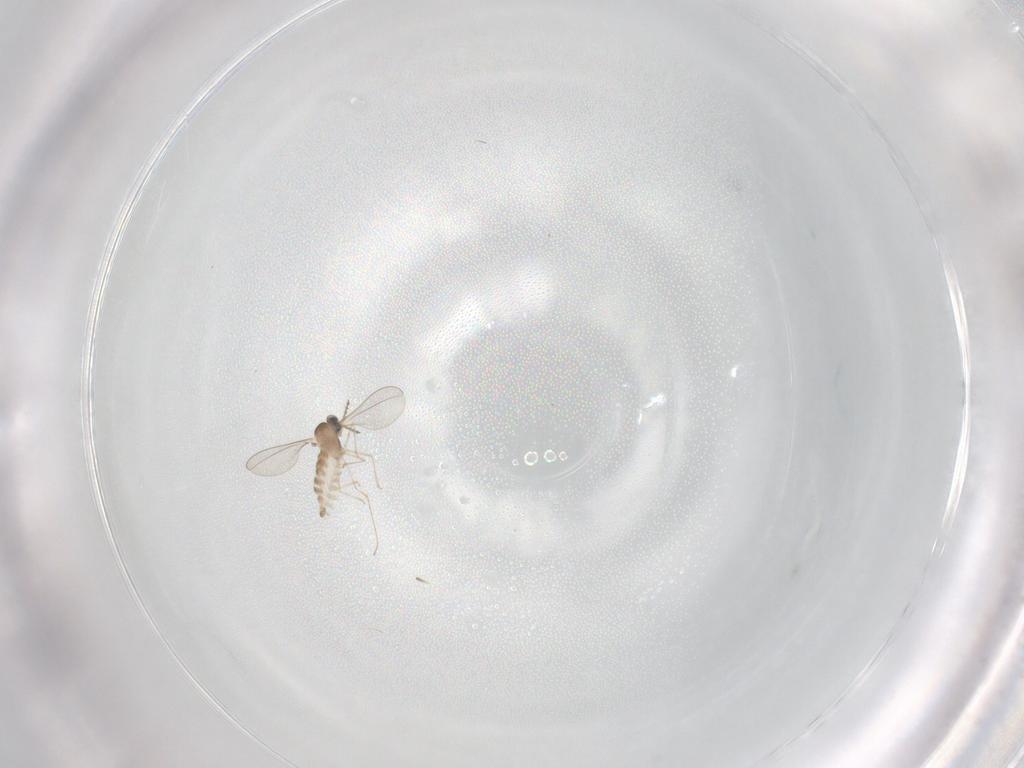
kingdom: Animalia
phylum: Arthropoda
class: Insecta
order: Diptera
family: Cecidomyiidae
